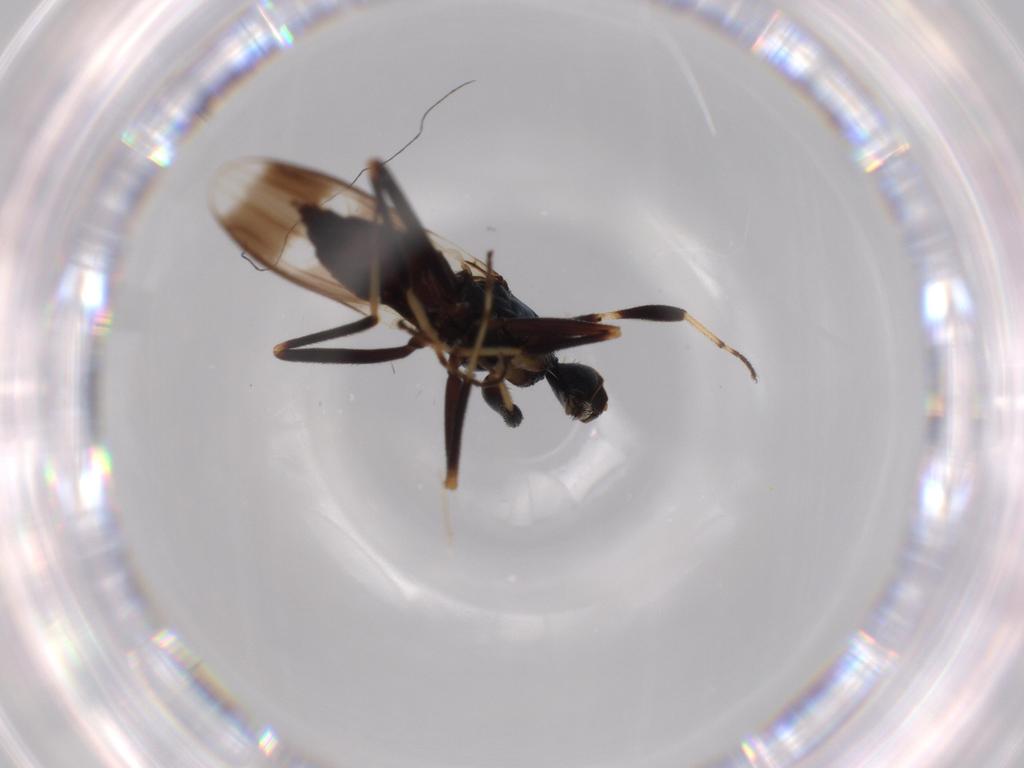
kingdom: Animalia
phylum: Arthropoda
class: Insecta
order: Diptera
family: Hybotidae
